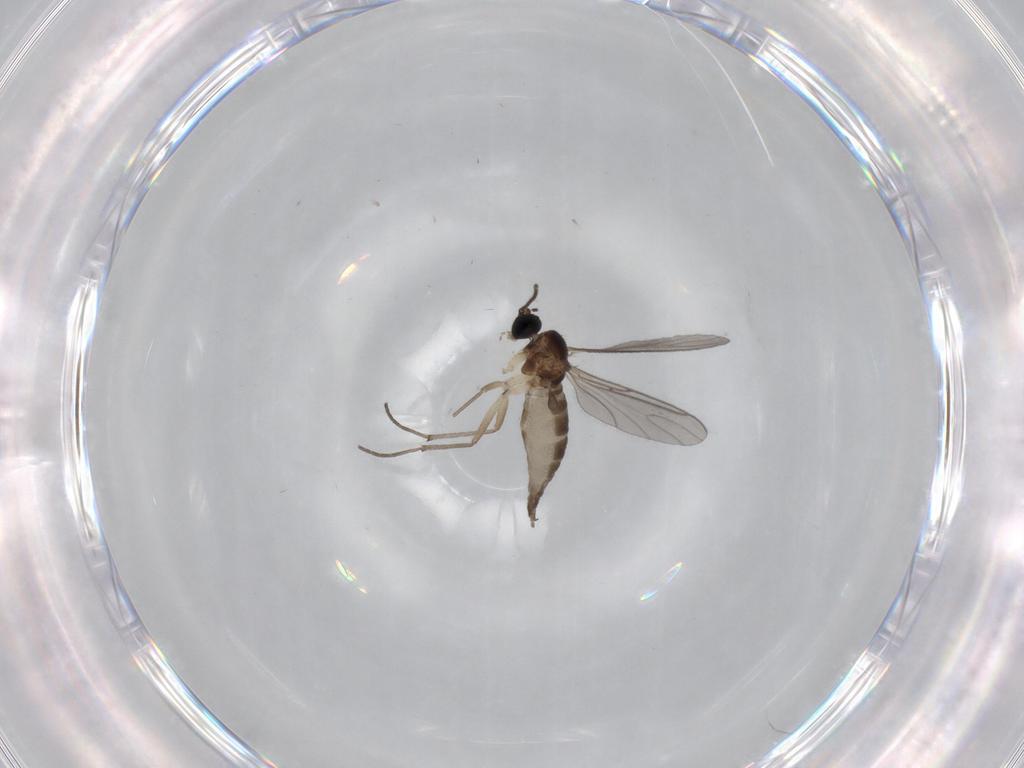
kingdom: Animalia
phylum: Arthropoda
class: Insecta
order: Diptera
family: Sciaridae
